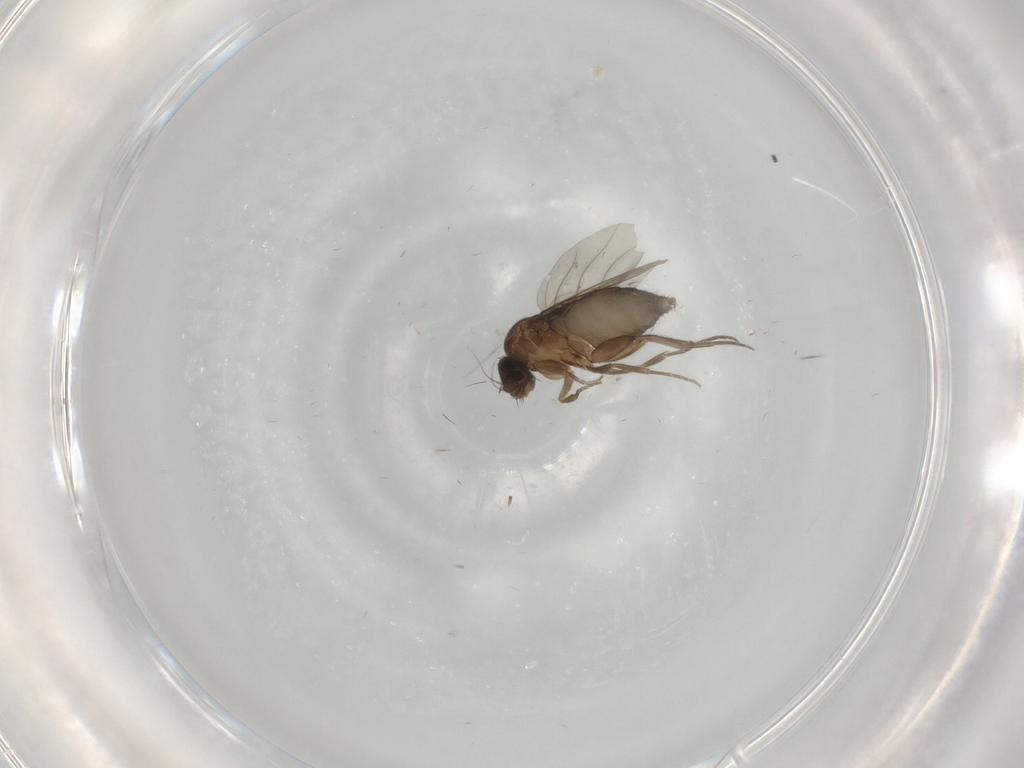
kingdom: Animalia
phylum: Arthropoda
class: Insecta
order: Diptera
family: Phoridae
